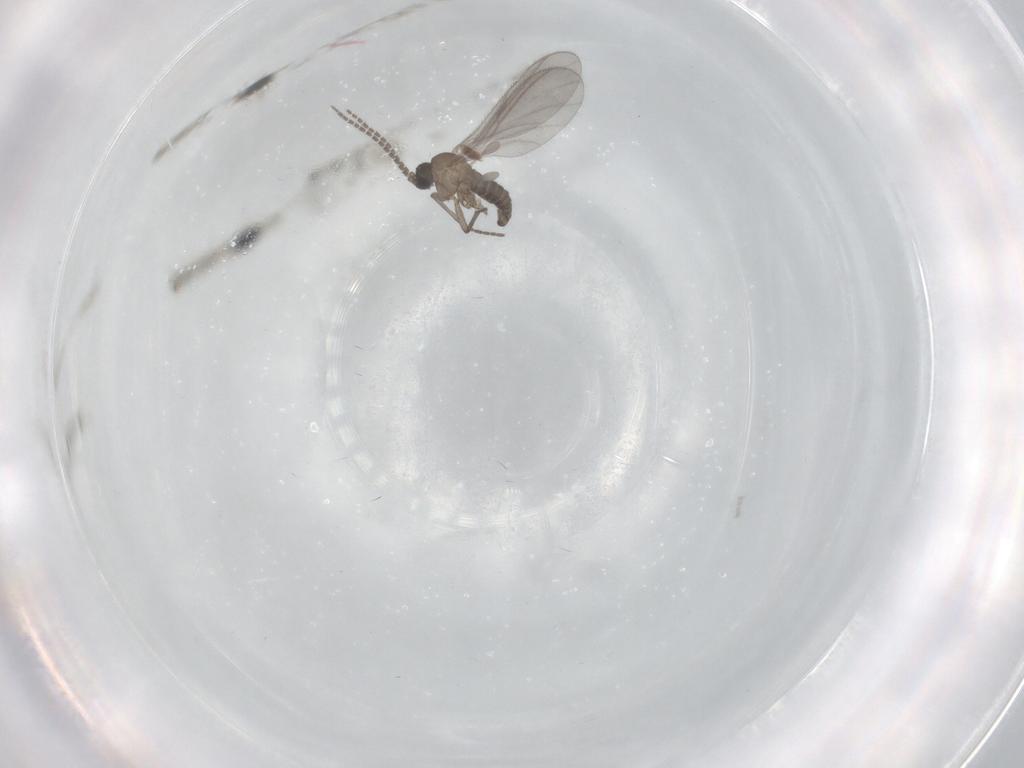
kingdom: Animalia
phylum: Arthropoda
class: Insecta
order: Diptera
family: Sciaridae
